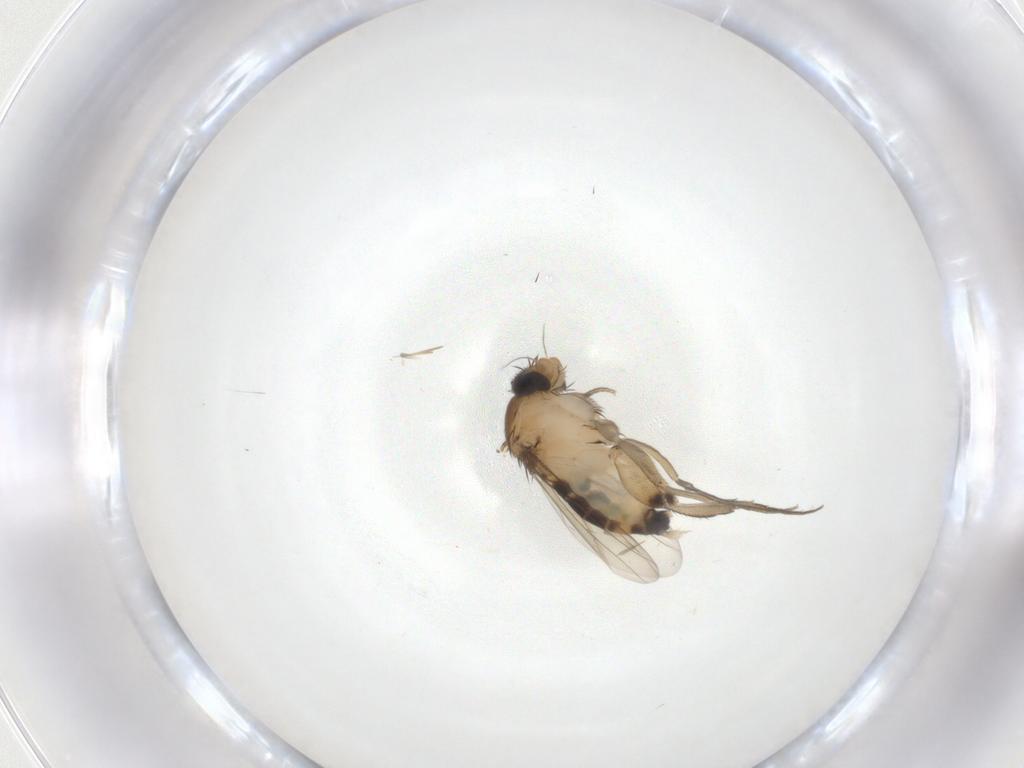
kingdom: Animalia
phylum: Arthropoda
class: Insecta
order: Diptera
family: Phoridae
